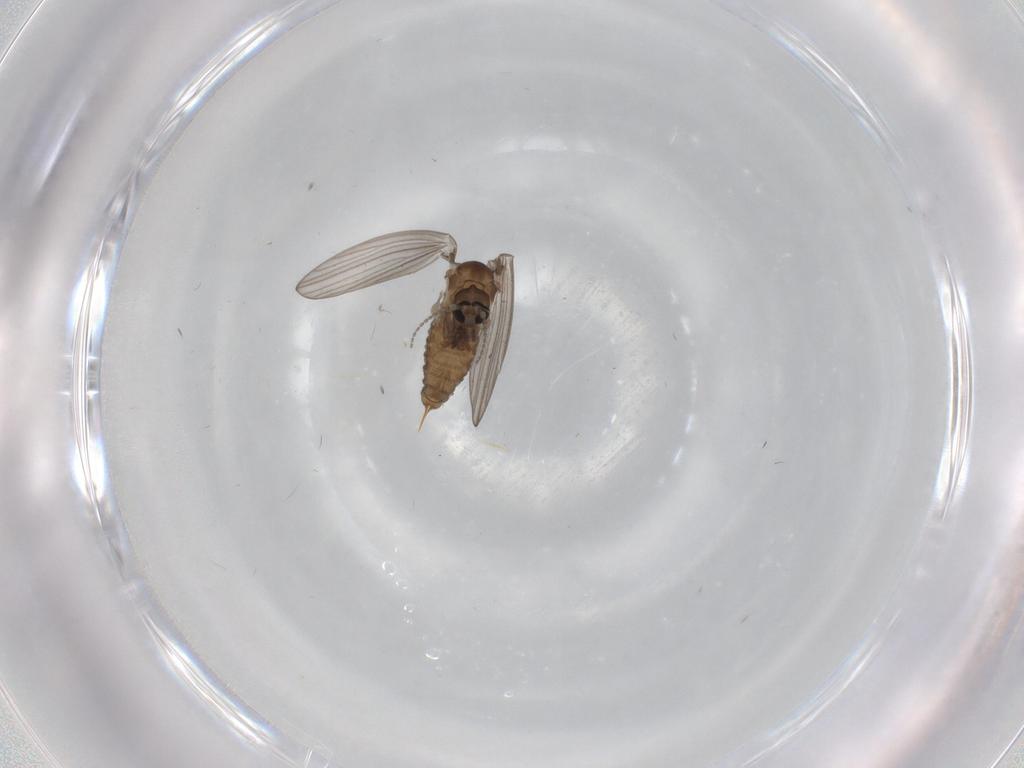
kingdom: Animalia
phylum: Arthropoda
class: Insecta
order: Diptera
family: Psychodidae
